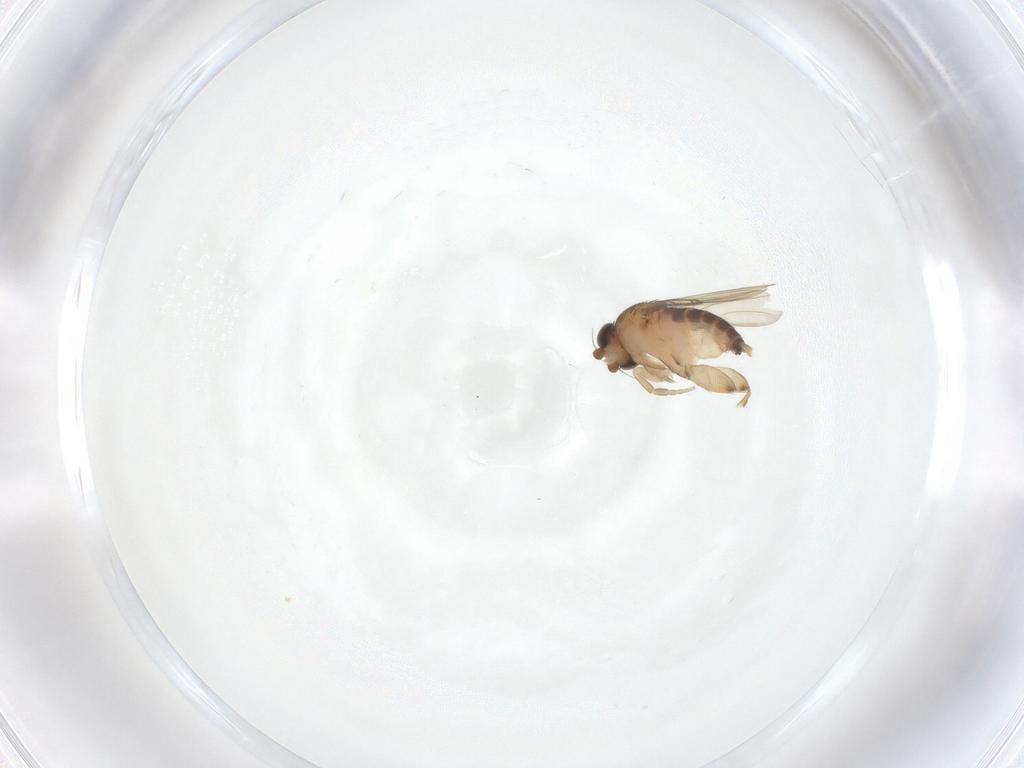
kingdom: Animalia
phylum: Arthropoda
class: Insecta
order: Diptera
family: Phoridae
